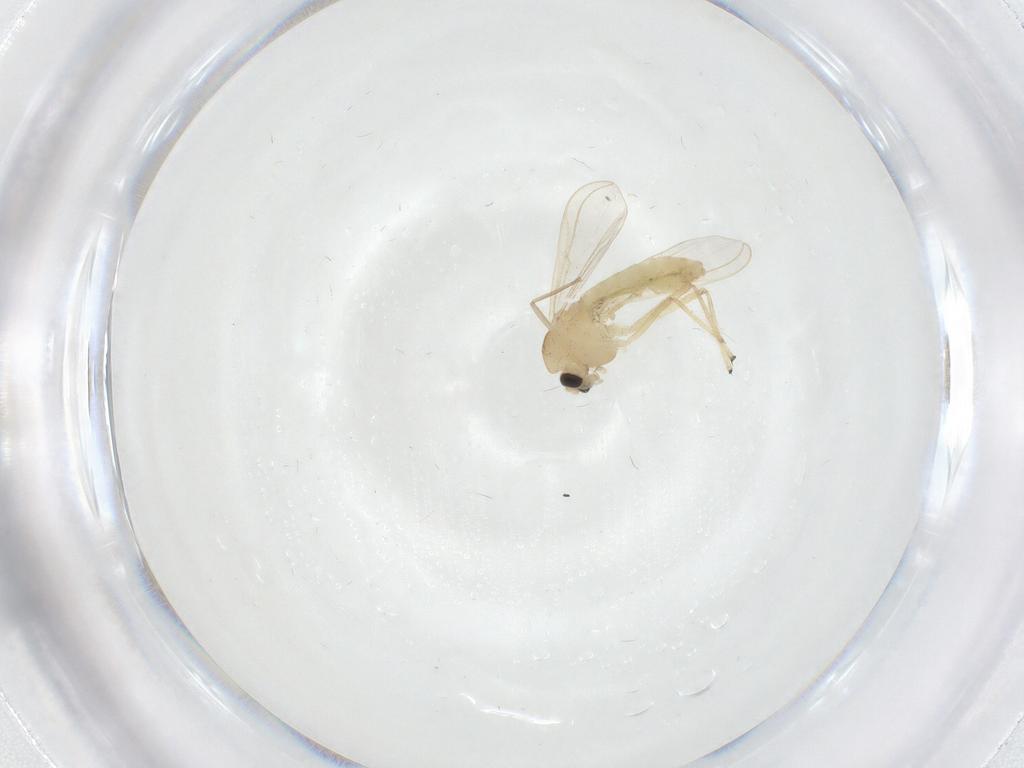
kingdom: Animalia
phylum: Arthropoda
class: Insecta
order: Diptera
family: Chironomidae
